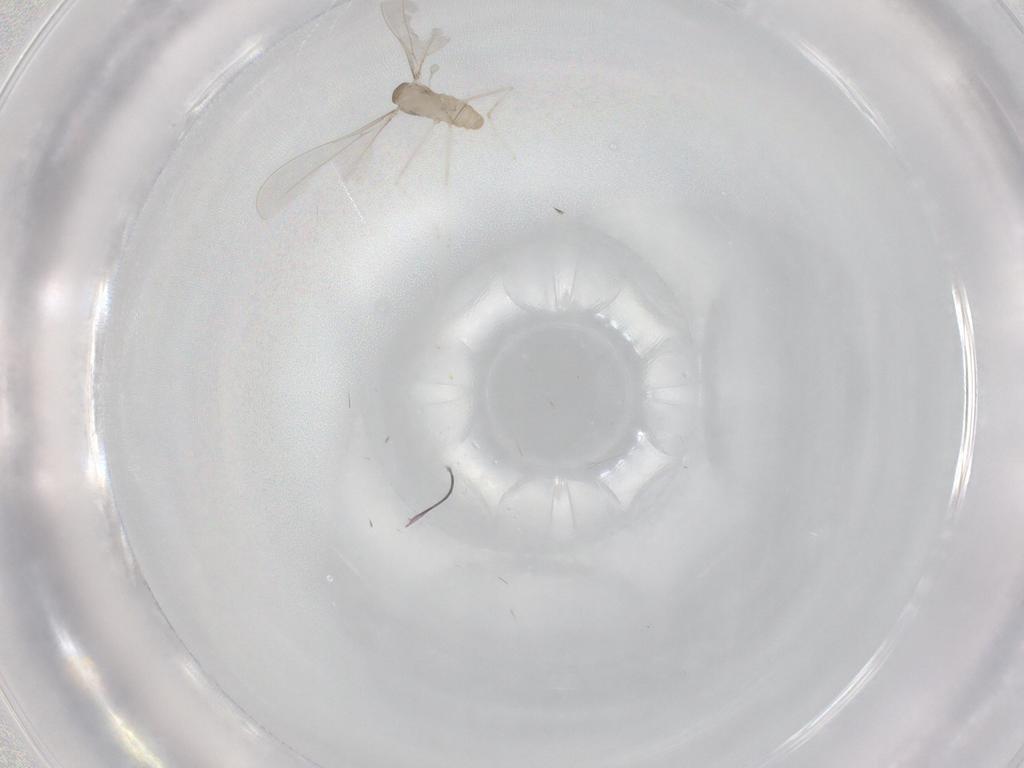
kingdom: Animalia
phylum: Arthropoda
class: Insecta
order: Diptera
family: Cecidomyiidae
